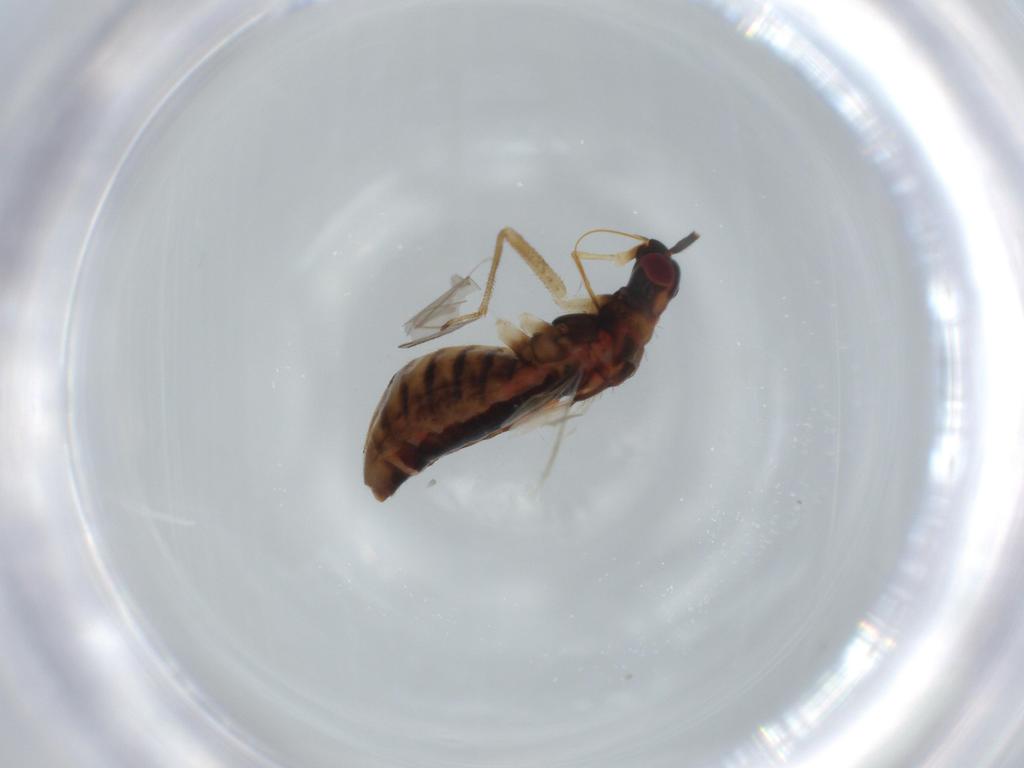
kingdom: Animalia
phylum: Arthropoda
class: Insecta
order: Hemiptera
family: Miridae
